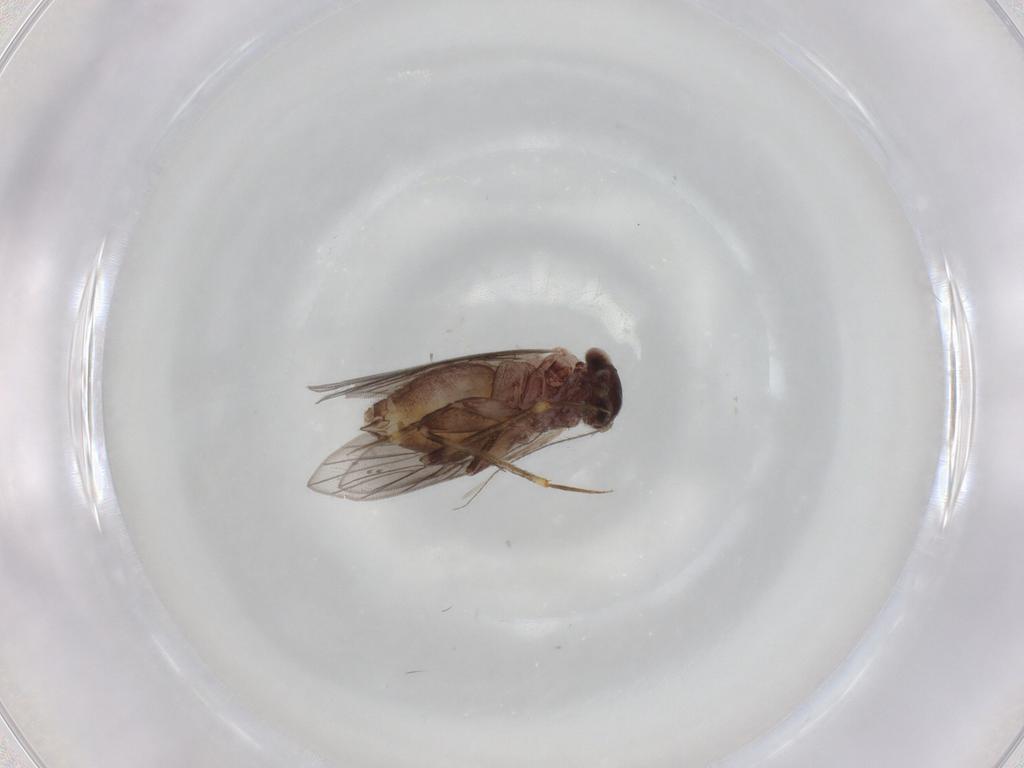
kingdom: Animalia
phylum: Arthropoda
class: Insecta
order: Psocodea
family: Lepidopsocidae
